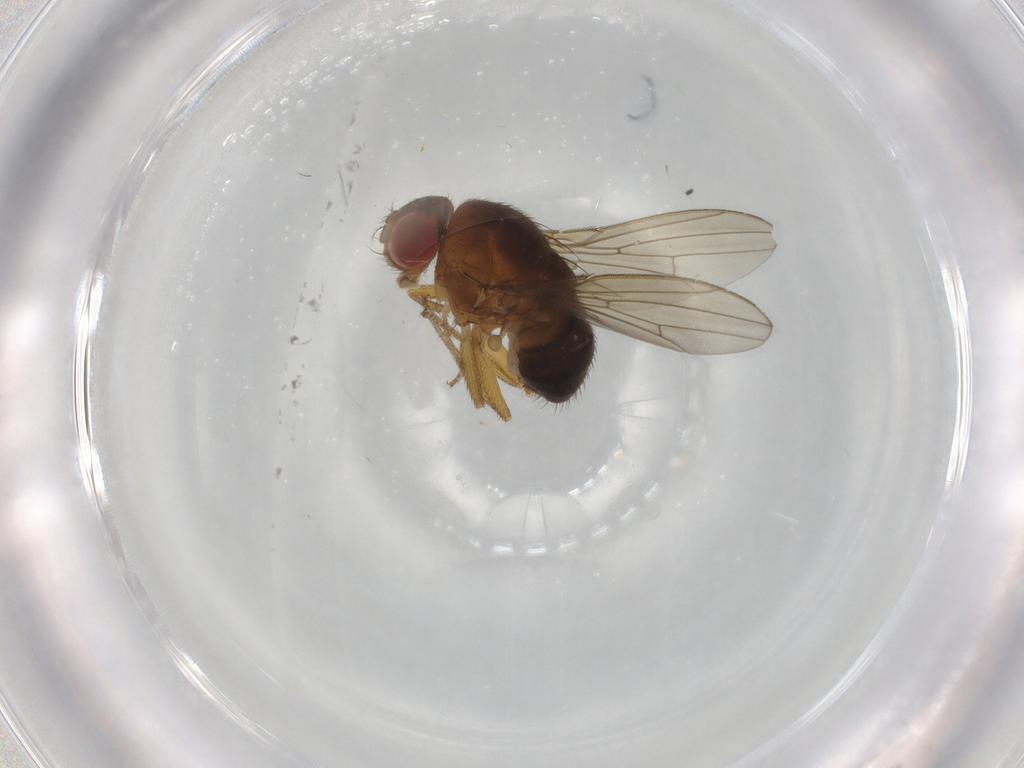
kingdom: Animalia
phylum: Arthropoda
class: Insecta
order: Diptera
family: Drosophilidae
